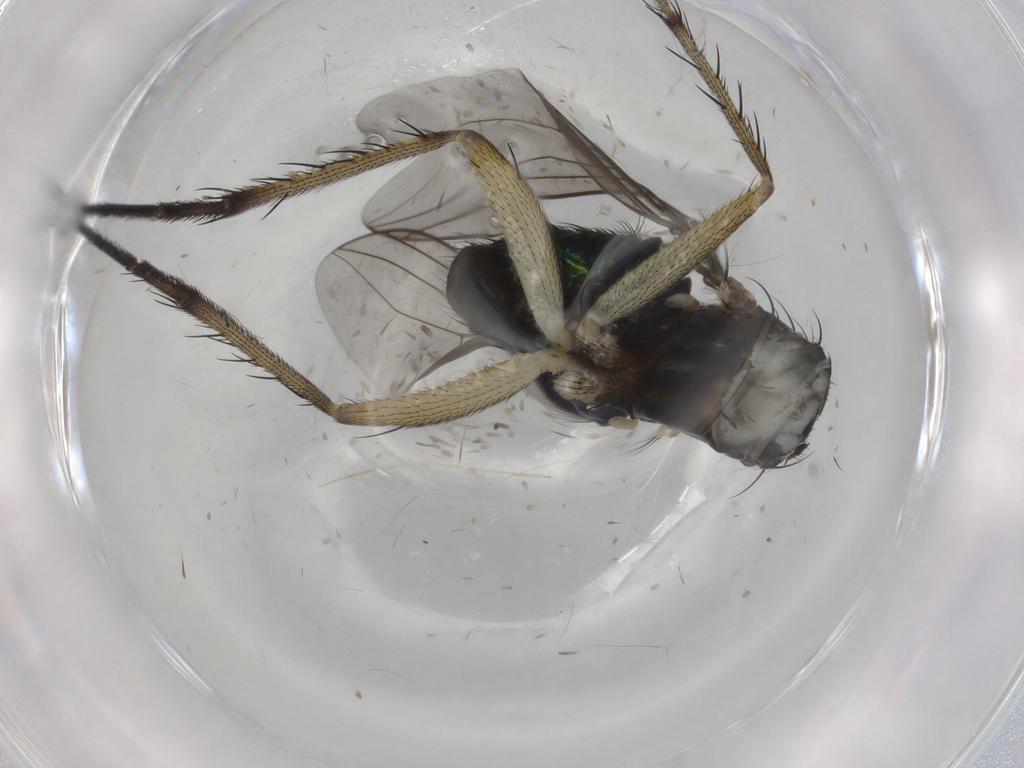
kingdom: Animalia
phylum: Arthropoda
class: Insecta
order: Diptera
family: Dolichopodidae
